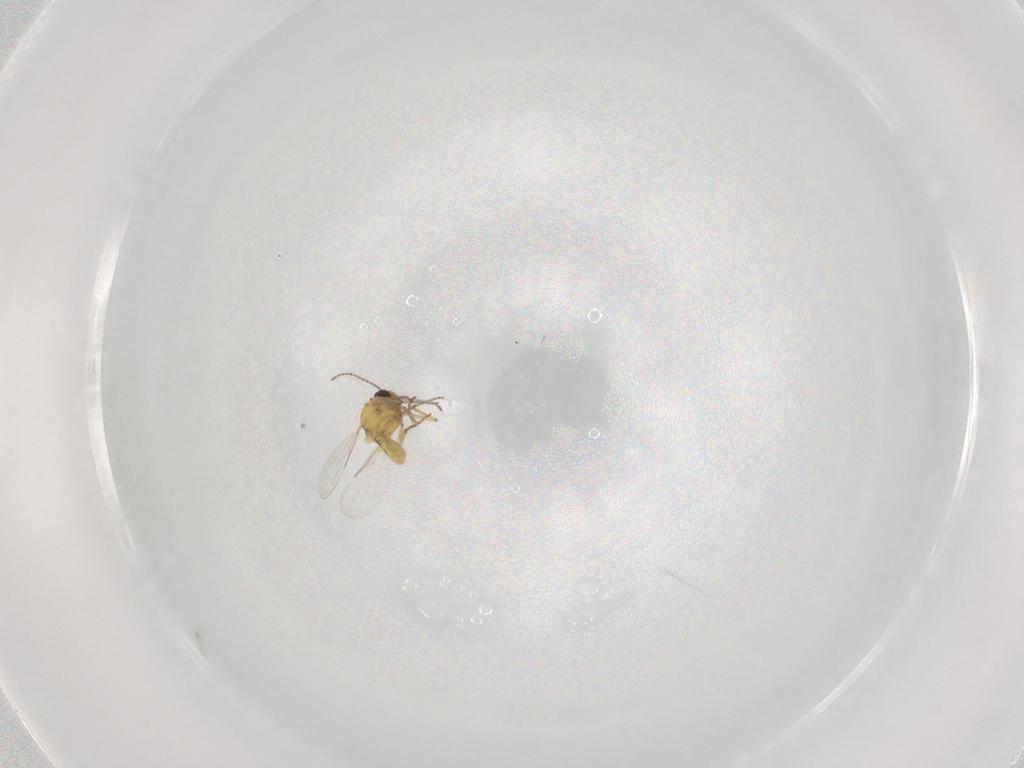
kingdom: Animalia
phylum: Arthropoda
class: Insecta
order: Diptera
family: Ceratopogonidae
